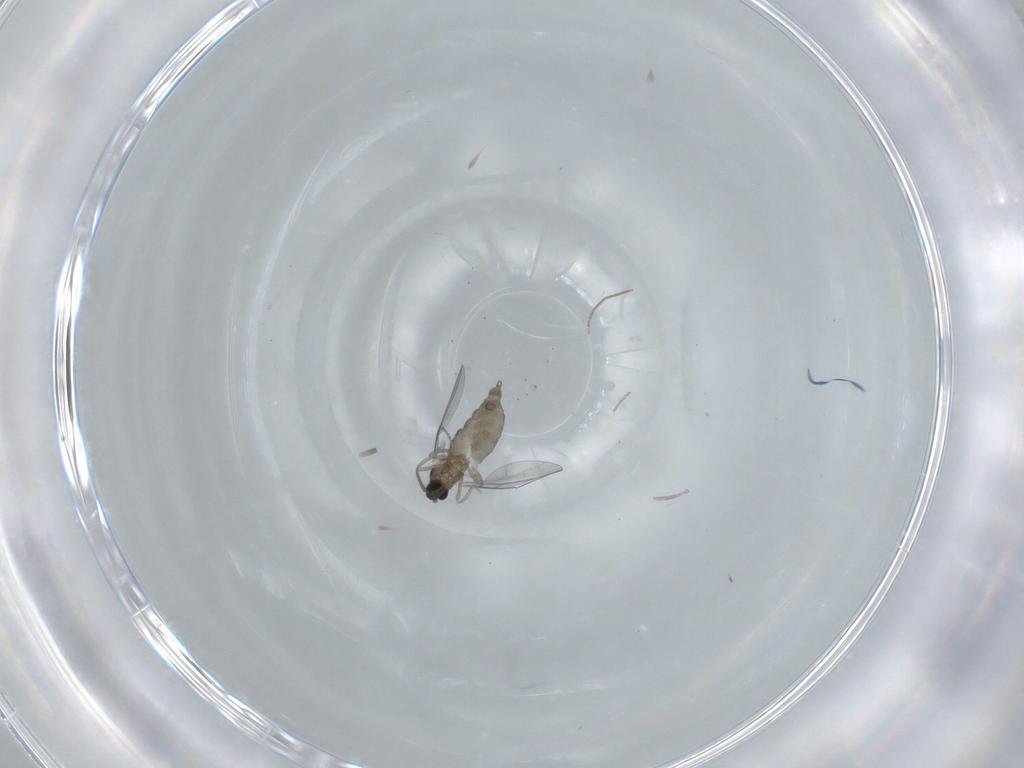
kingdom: Animalia
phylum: Arthropoda
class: Insecta
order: Diptera
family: Cecidomyiidae
